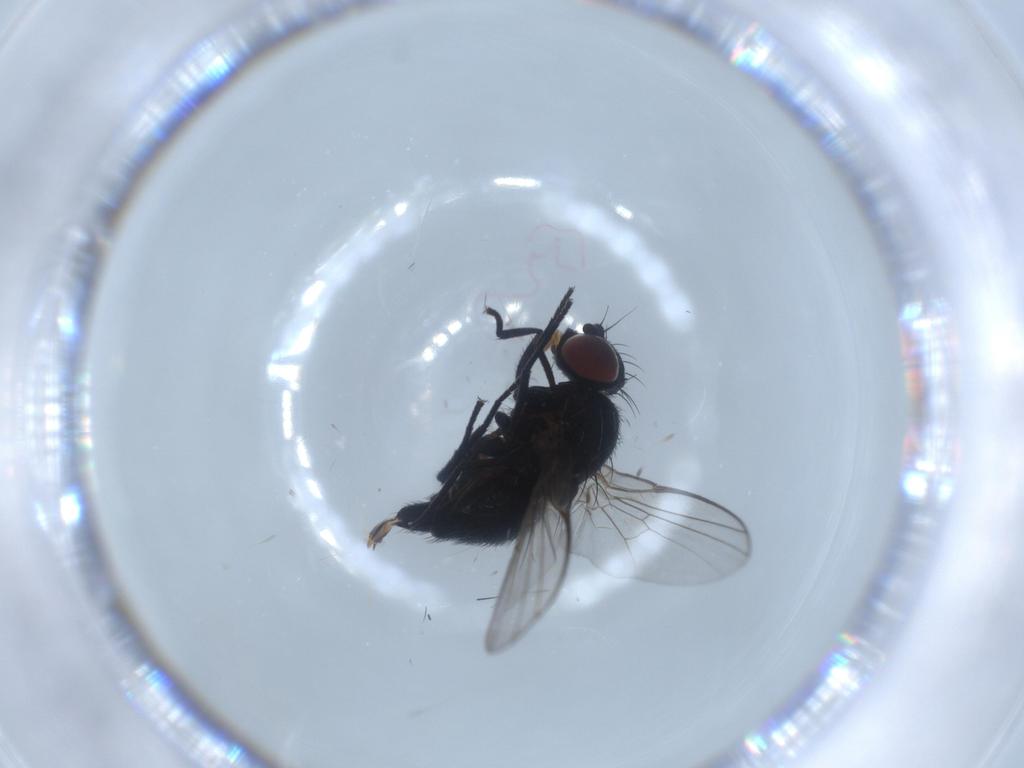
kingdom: Animalia
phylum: Arthropoda
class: Insecta
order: Diptera
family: Agromyzidae
